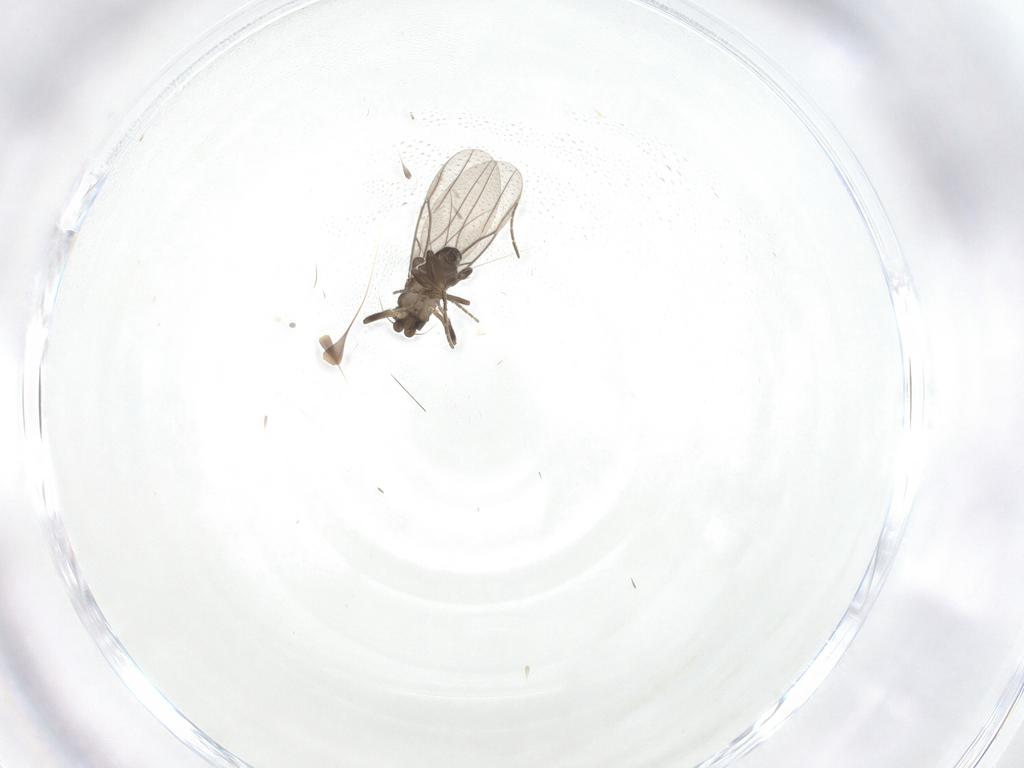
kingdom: Animalia
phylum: Arthropoda
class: Insecta
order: Diptera
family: Phoridae
